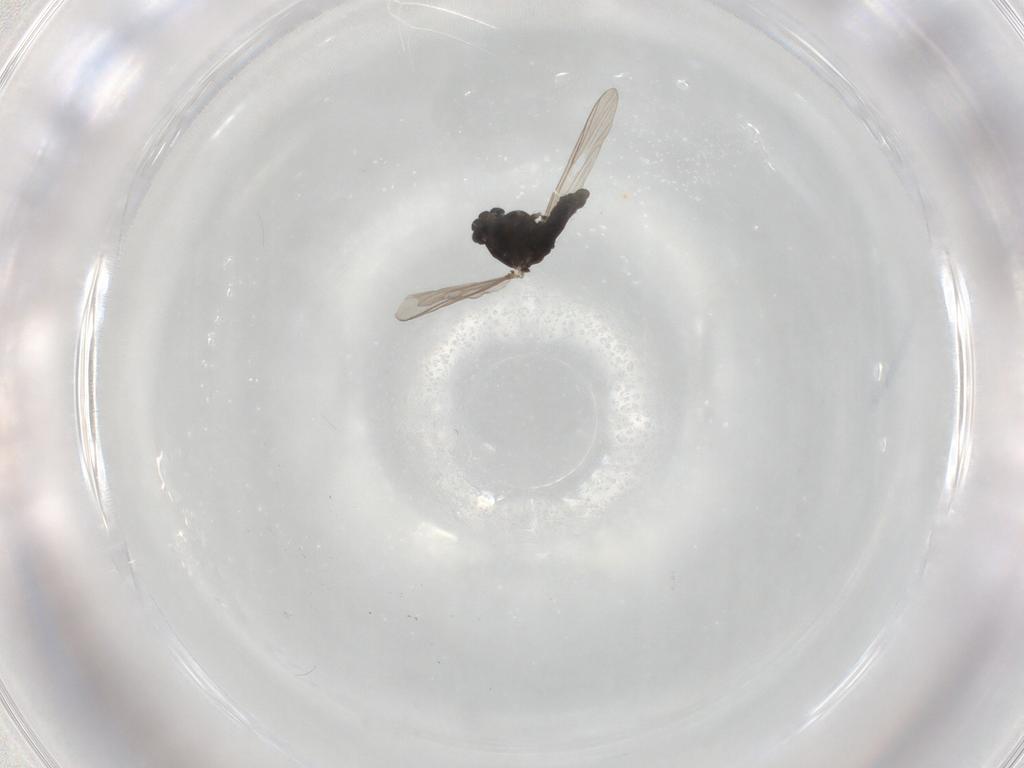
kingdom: Animalia
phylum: Arthropoda
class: Insecta
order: Diptera
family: Chironomidae
